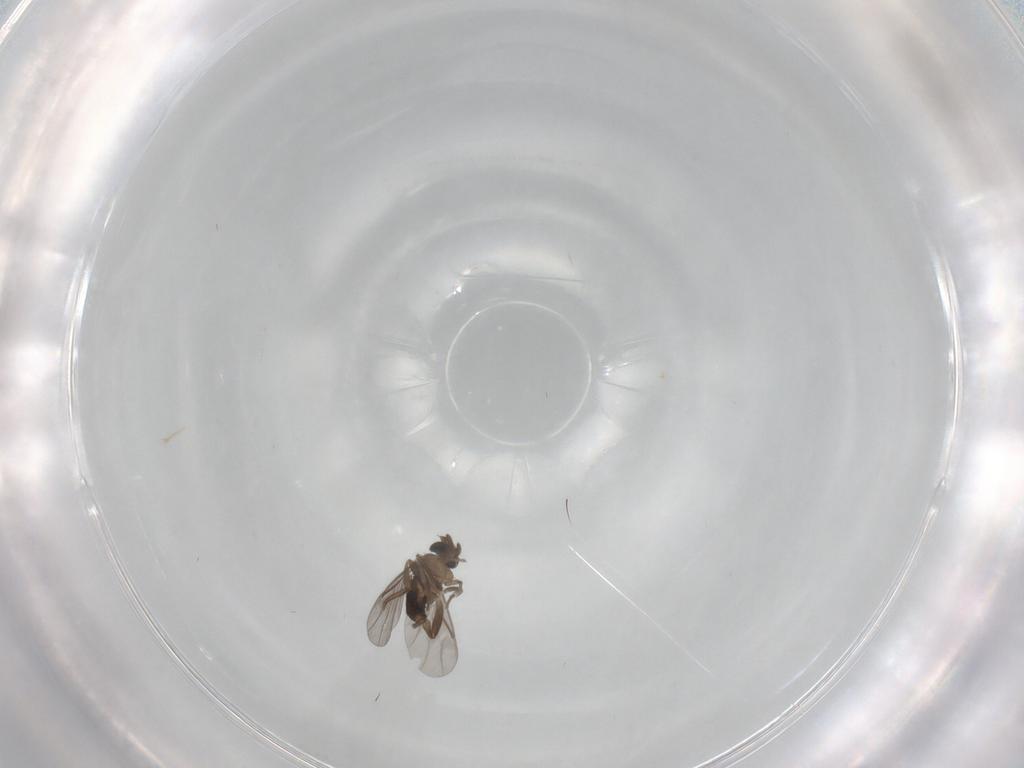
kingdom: Animalia
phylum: Arthropoda
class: Insecta
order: Diptera
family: Phoridae
